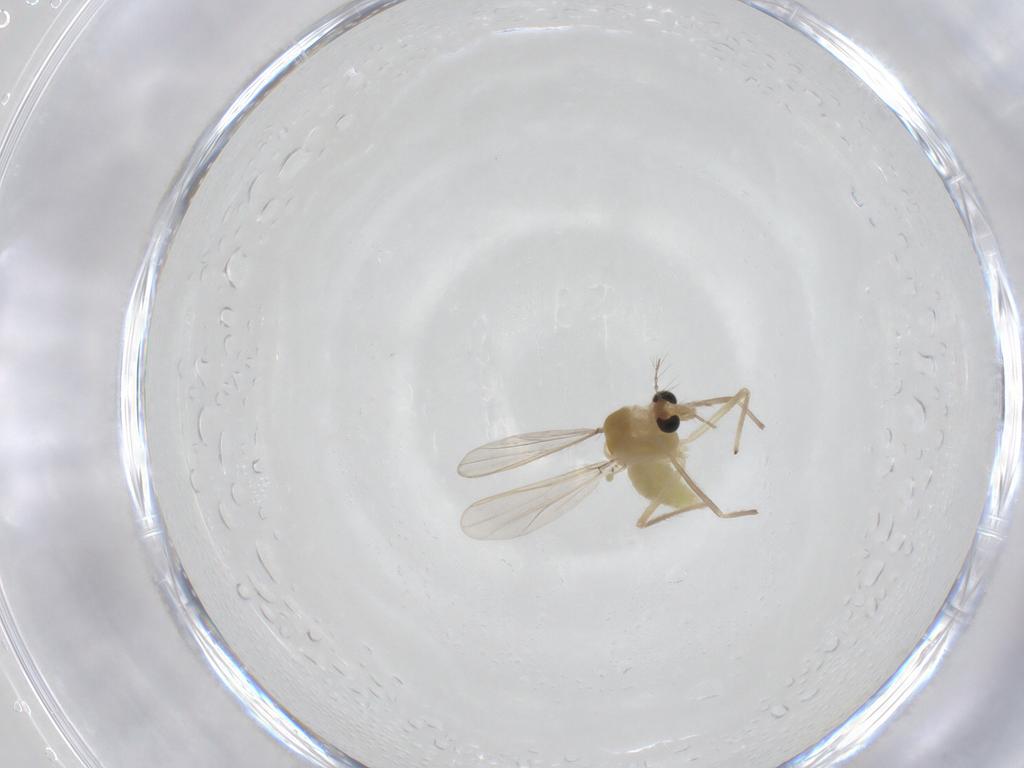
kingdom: Animalia
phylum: Arthropoda
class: Insecta
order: Diptera
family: Chironomidae
